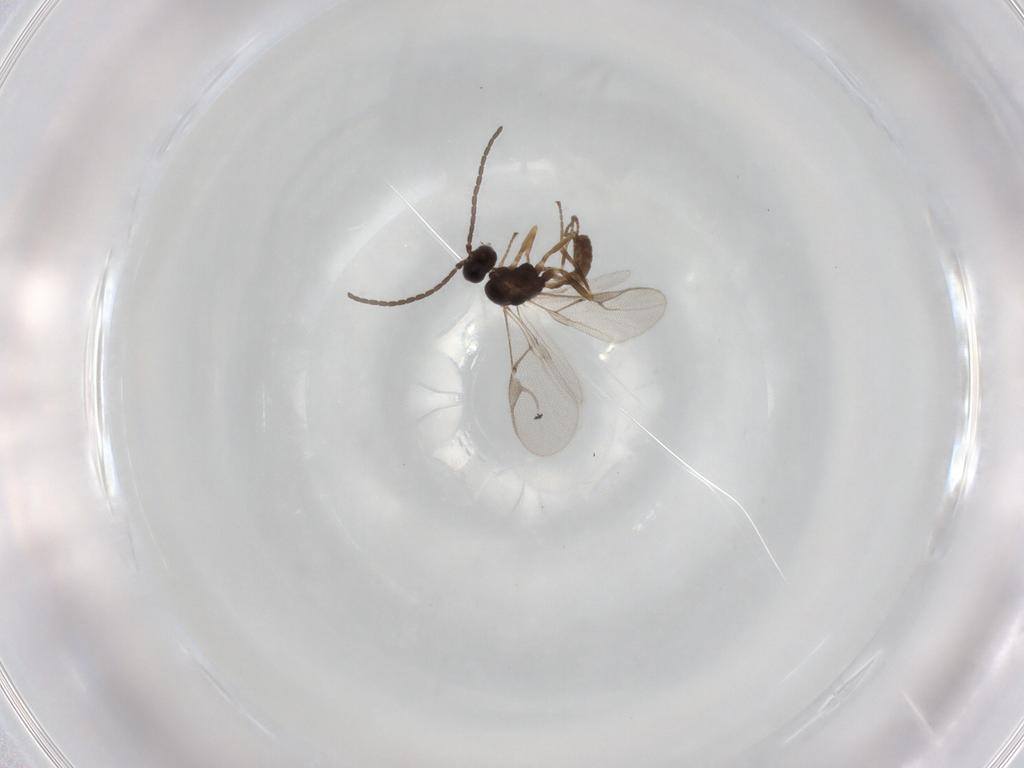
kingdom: Animalia
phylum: Arthropoda
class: Insecta
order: Hymenoptera
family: Braconidae
